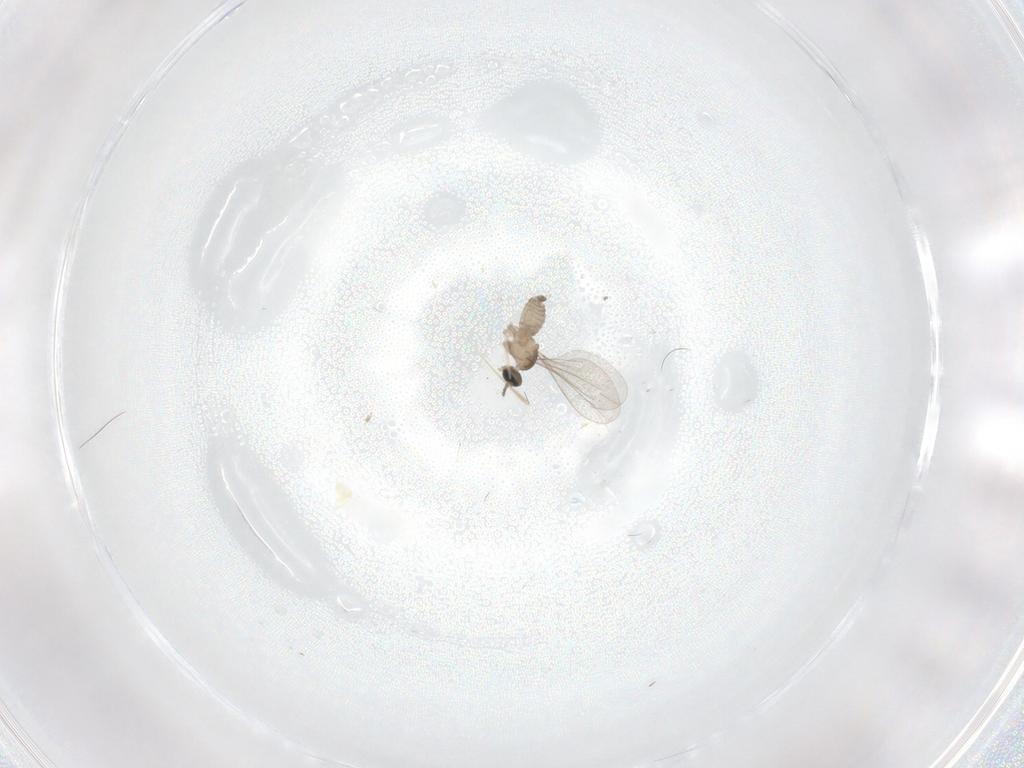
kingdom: Animalia
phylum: Arthropoda
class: Insecta
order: Diptera
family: Cecidomyiidae
